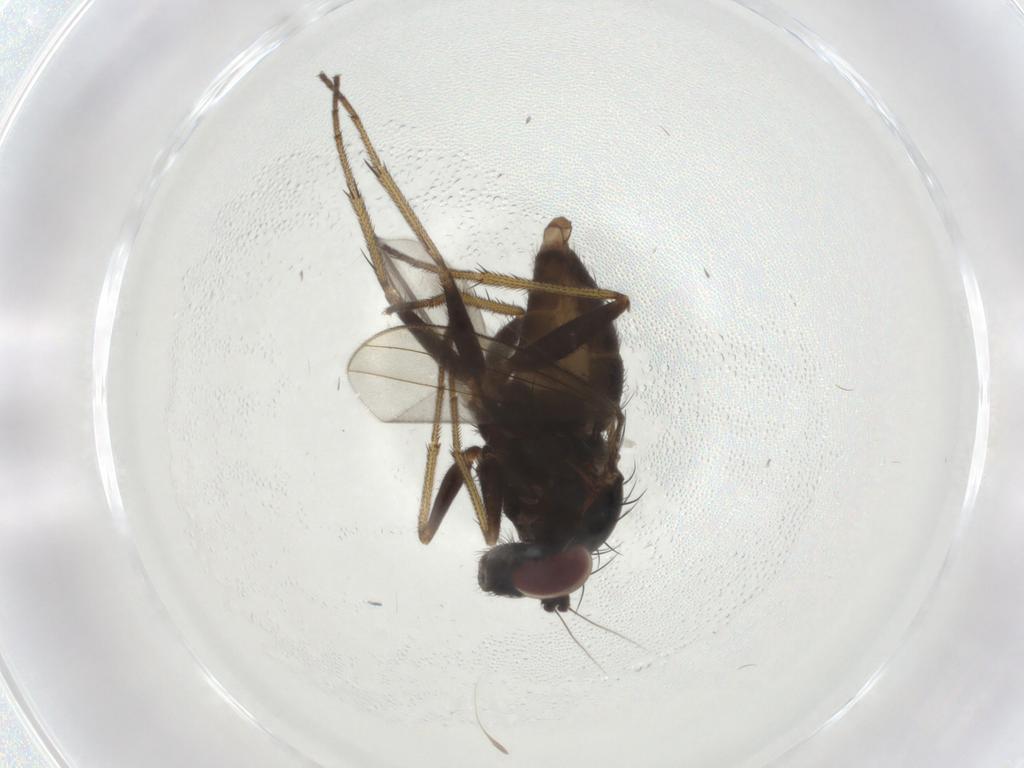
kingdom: Animalia
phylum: Arthropoda
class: Insecta
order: Diptera
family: Dolichopodidae
